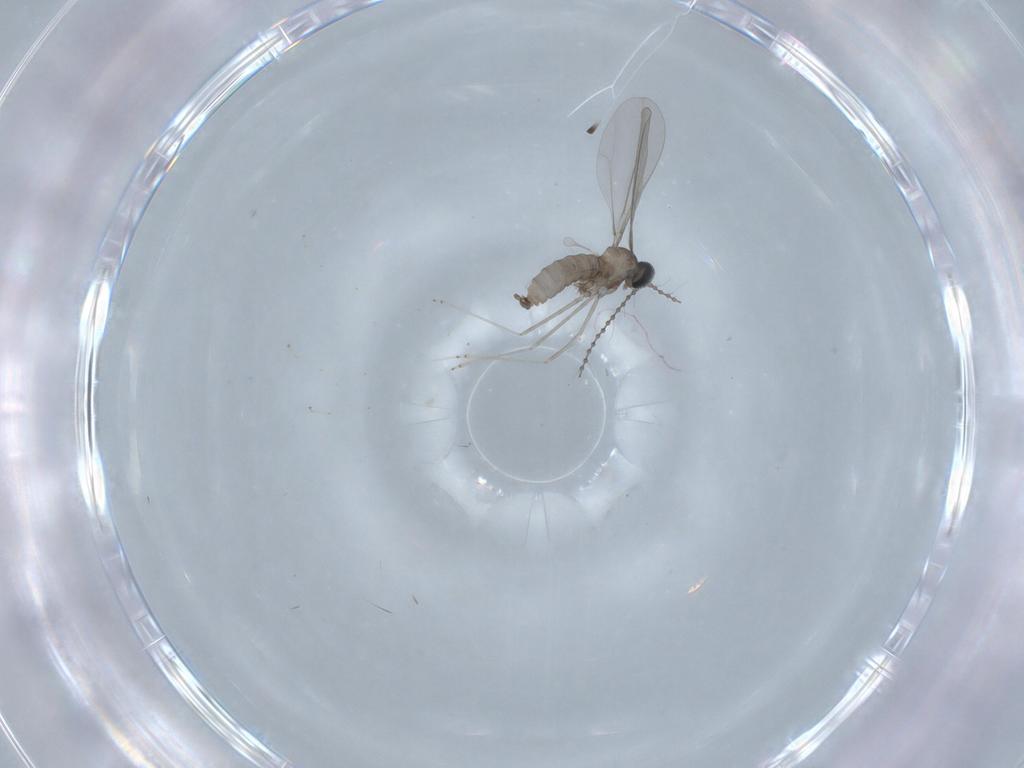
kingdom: Animalia
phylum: Arthropoda
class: Insecta
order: Diptera
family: Cecidomyiidae
